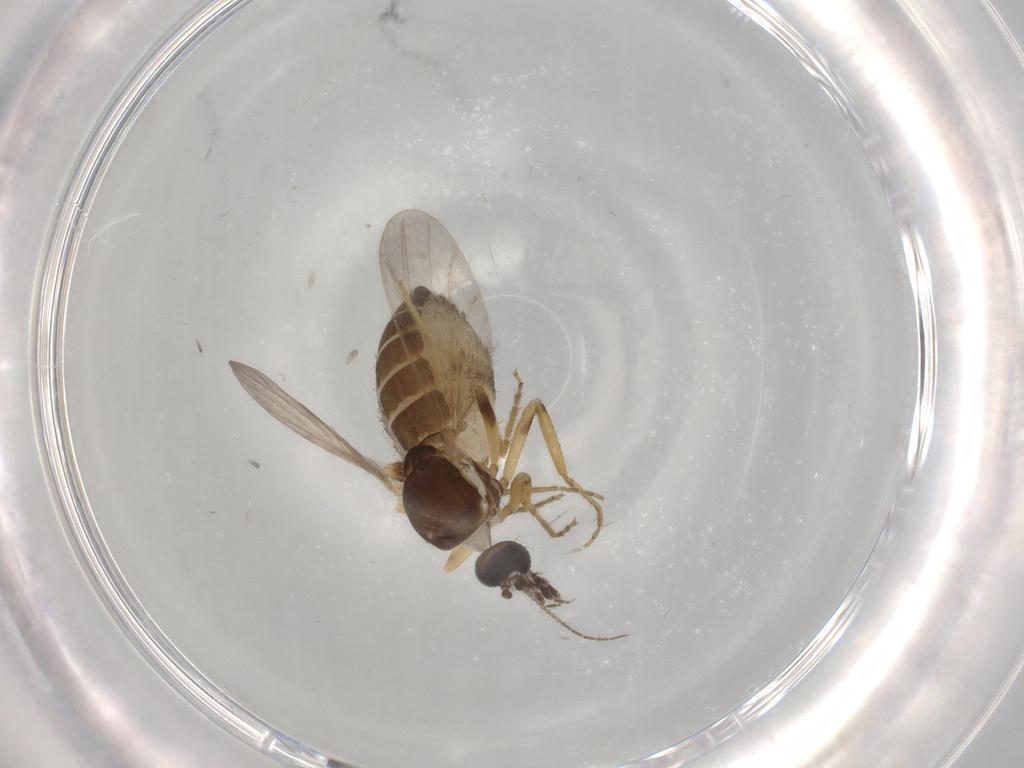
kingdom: Animalia
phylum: Arthropoda
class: Insecta
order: Diptera
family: Ceratopogonidae
